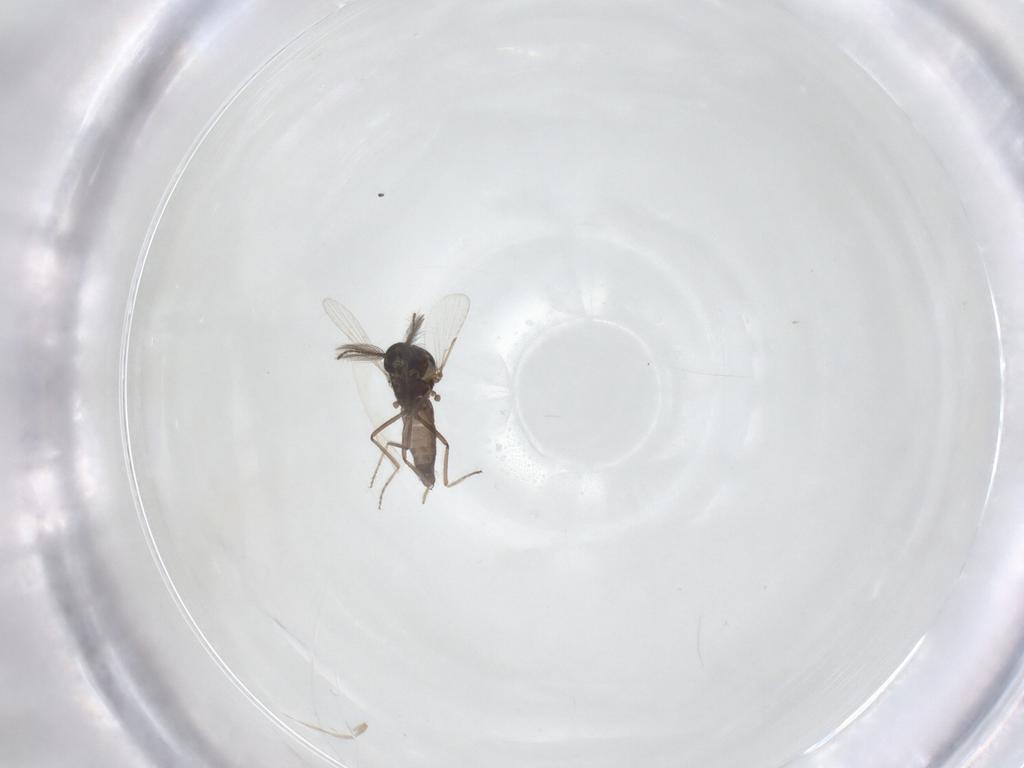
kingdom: Animalia
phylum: Arthropoda
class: Insecta
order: Diptera
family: Ceratopogonidae
